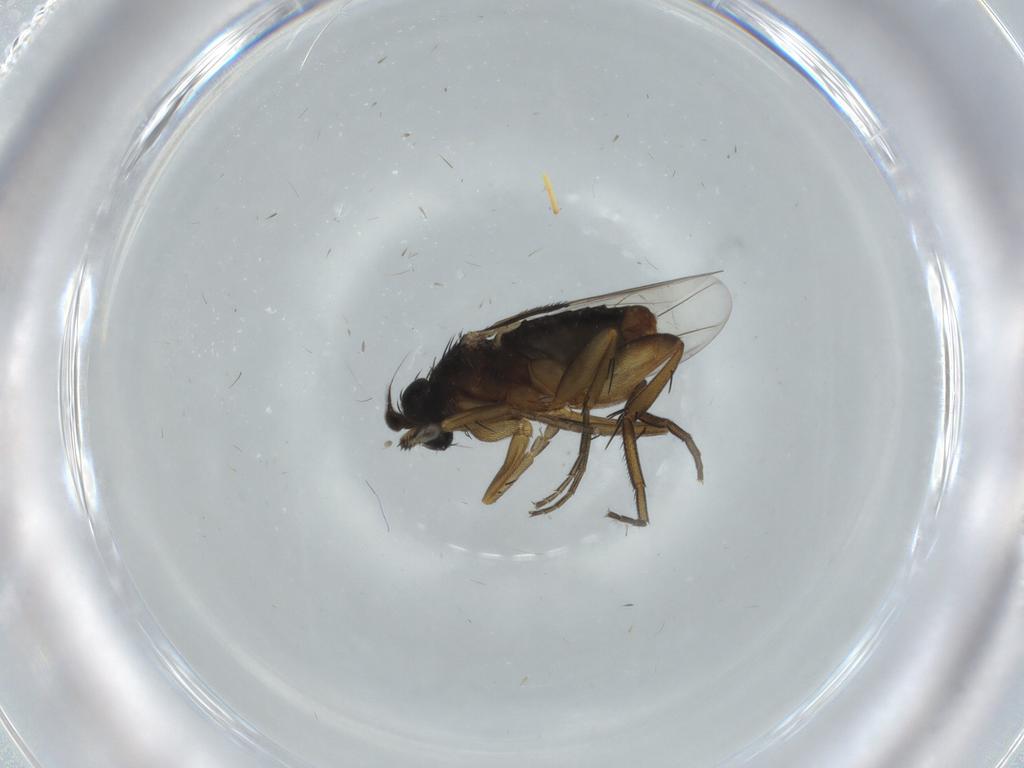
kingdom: Animalia
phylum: Arthropoda
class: Insecta
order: Diptera
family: Phoridae
